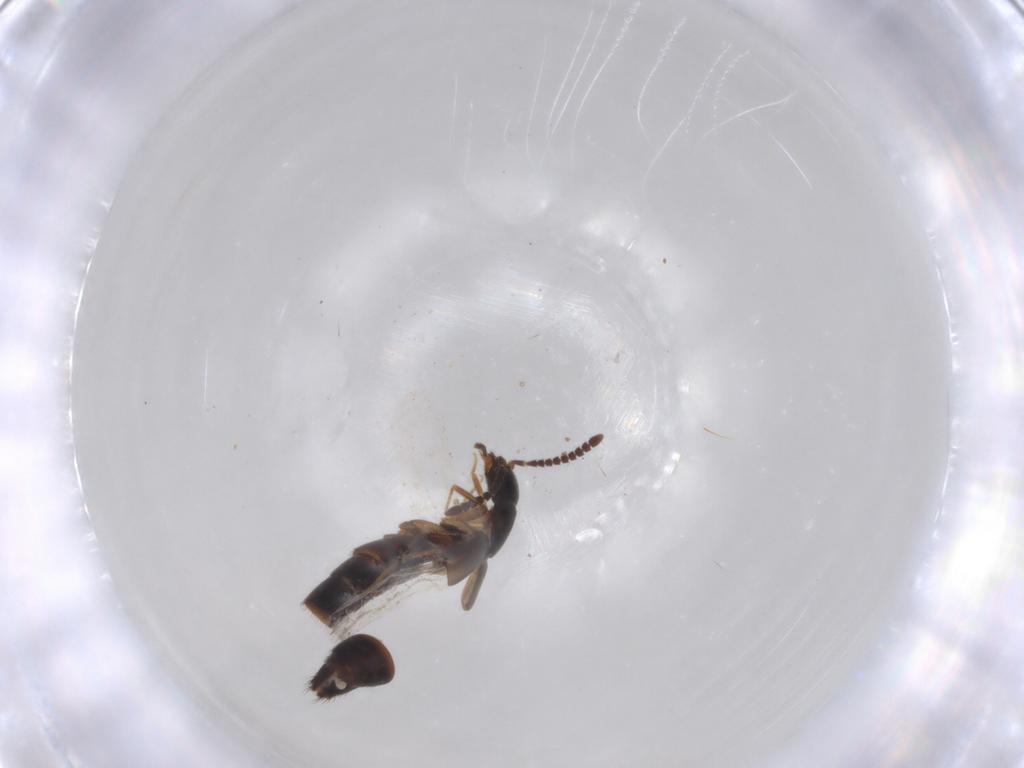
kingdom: Animalia
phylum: Arthropoda
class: Insecta
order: Coleoptera
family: Staphylinidae
